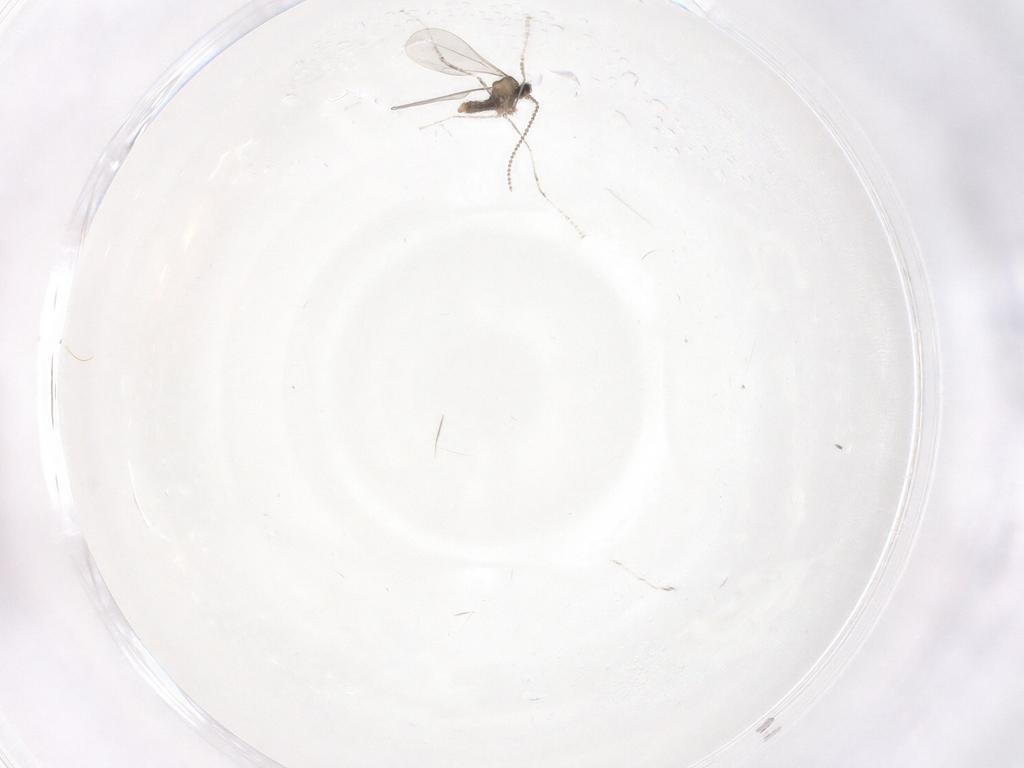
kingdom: Animalia
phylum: Arthropoda
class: Insecta
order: Diptera
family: Cecidomyiidae
